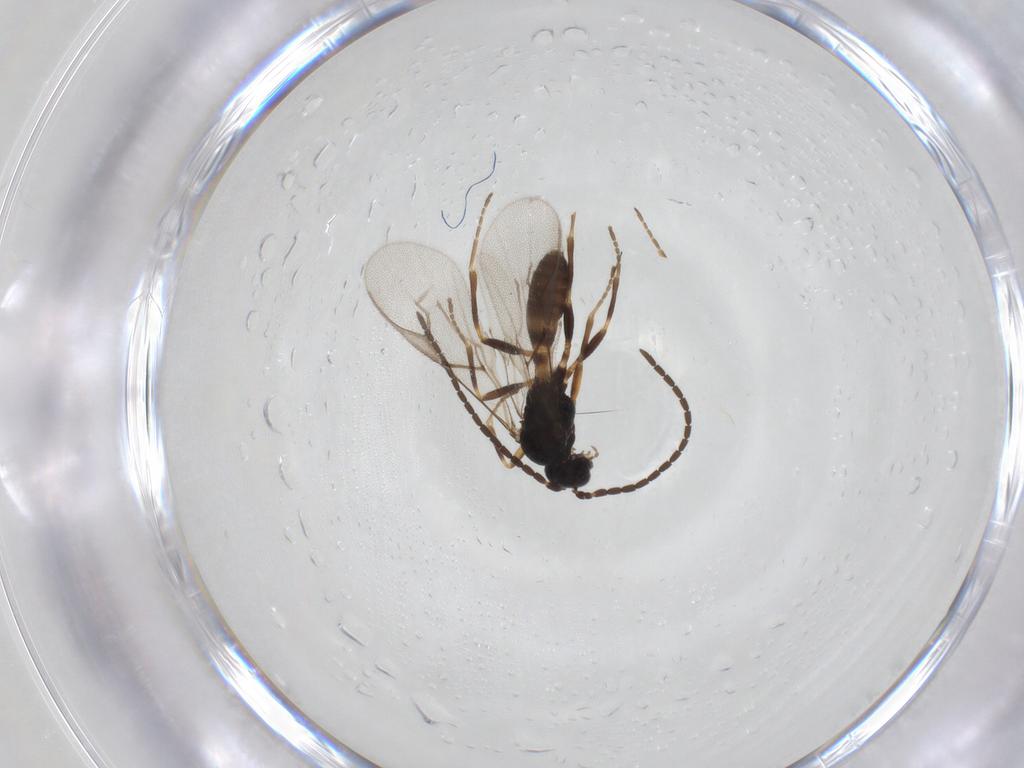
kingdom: Animalia
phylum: Arthropoda
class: Insecta
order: Hymenoptera
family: Braconidae
